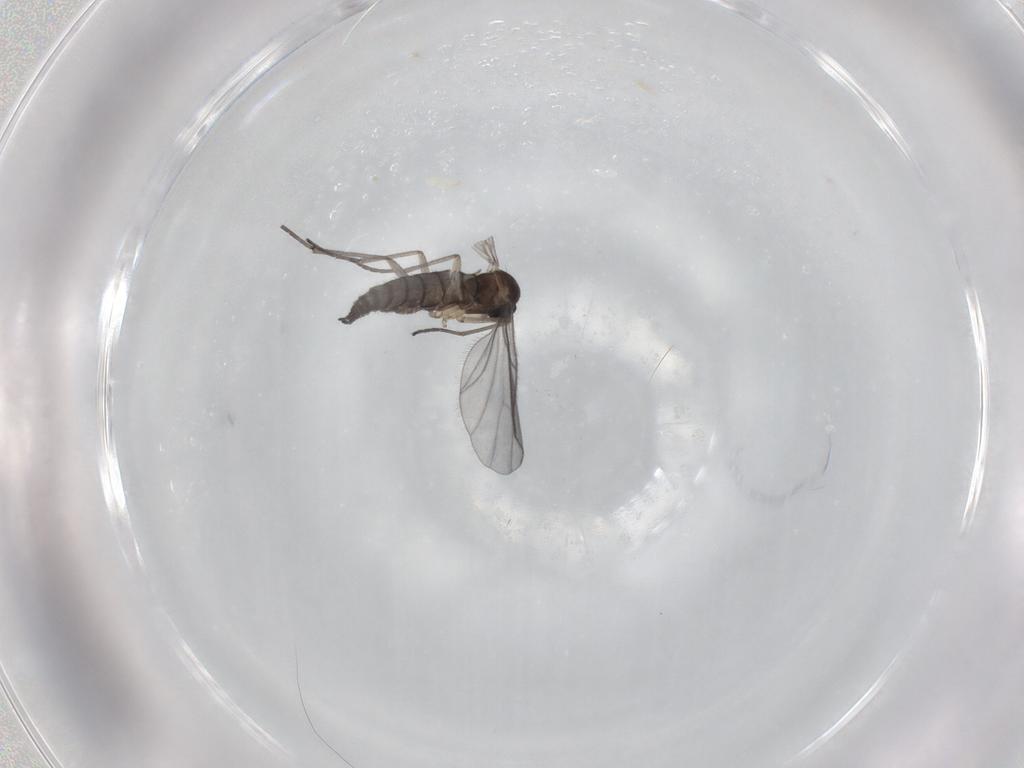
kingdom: Animalia
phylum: Arthropoda
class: Insecta
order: Diptera
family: Sciaridae
